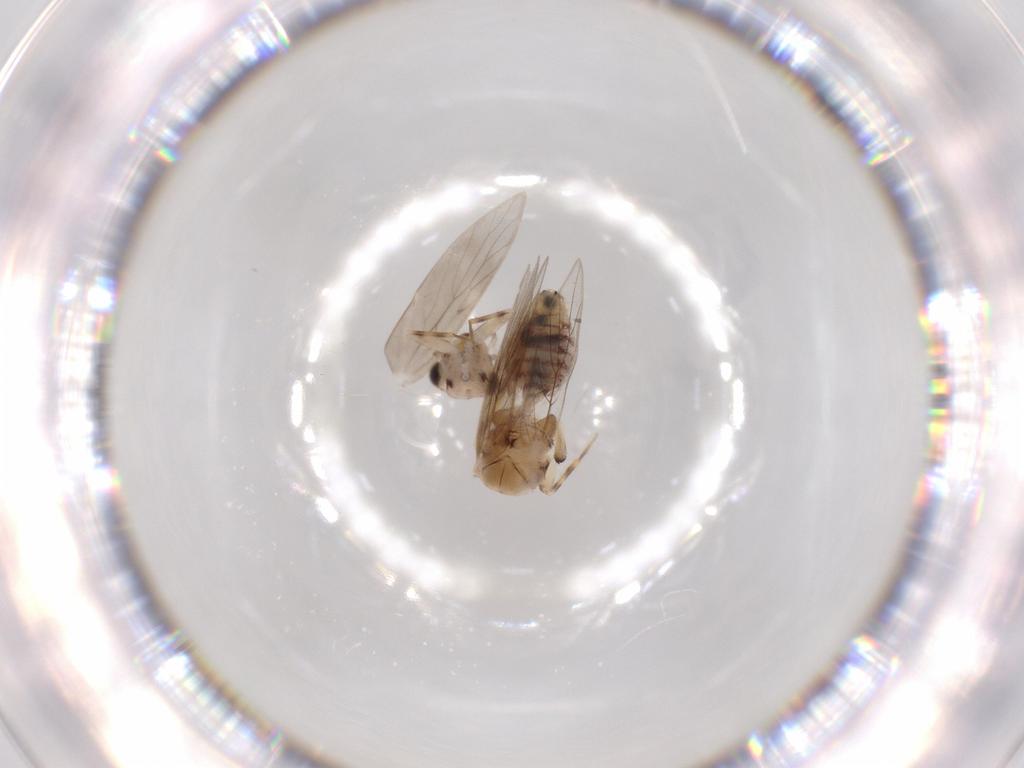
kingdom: Animalia
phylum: Arthropoda
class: Insecta
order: Psocodea
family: Lepidopsocidae
